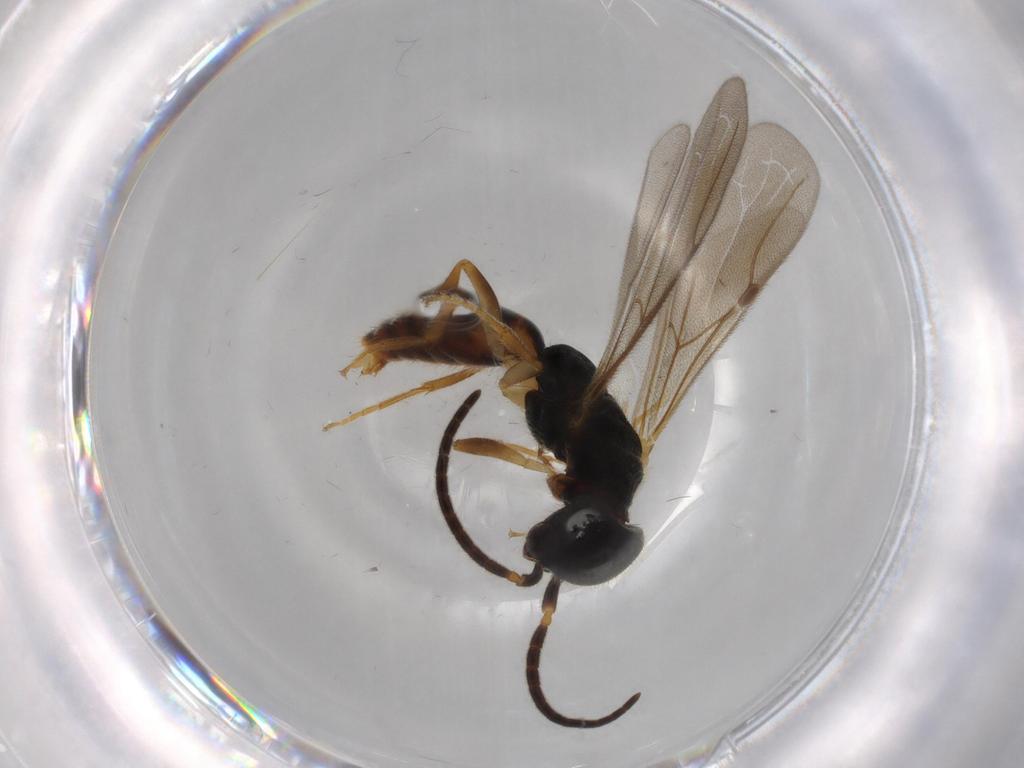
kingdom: Animalia
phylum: Arthropoda
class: Insecta
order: Hymenoptera
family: Bethylidae
